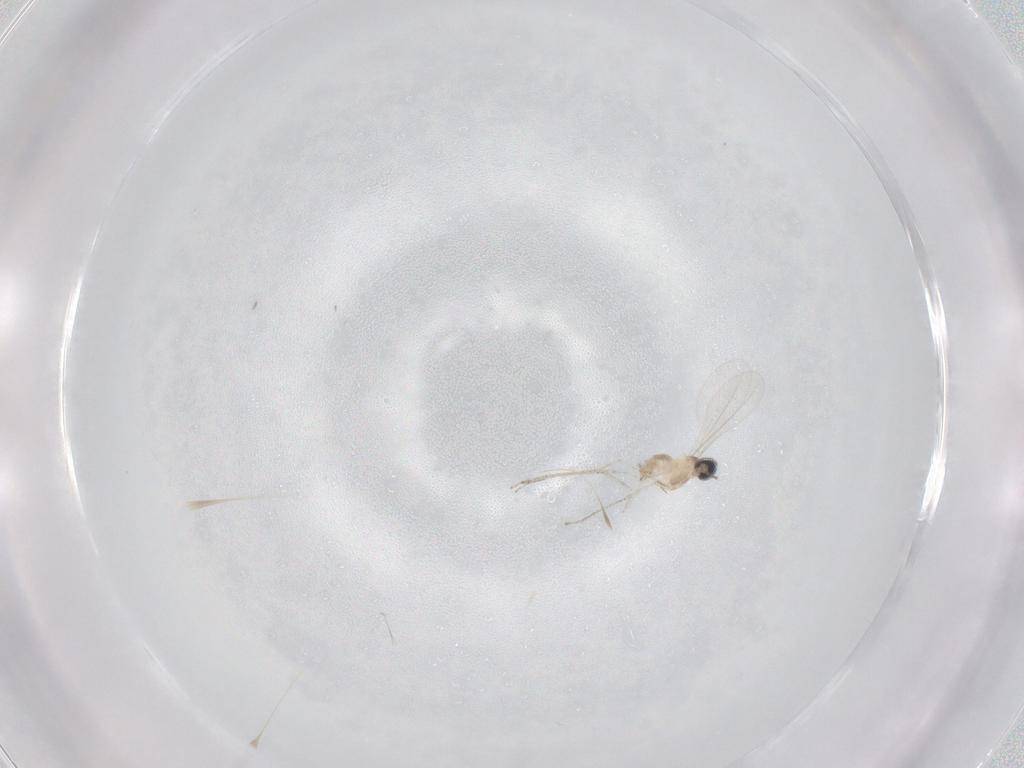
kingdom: Animalia
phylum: Arthropoda
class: Insecta
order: Diptera
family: Cecidomyiidae
